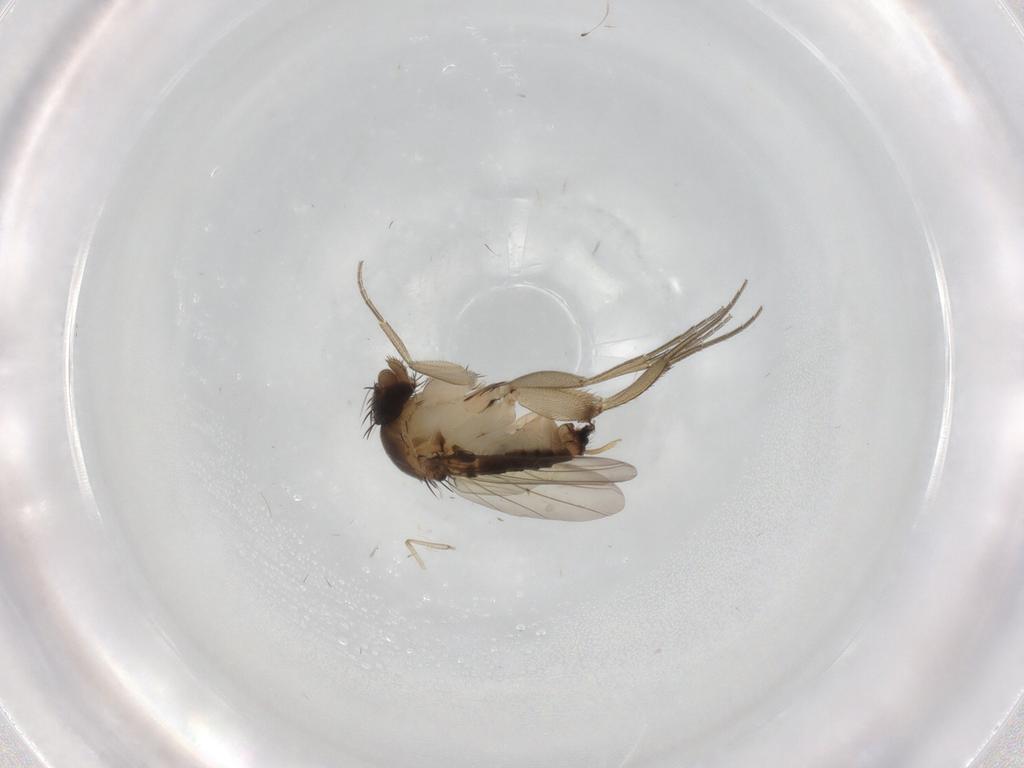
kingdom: Animalia
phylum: Arthropoda
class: Insecta
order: Diptera
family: Phoridae
